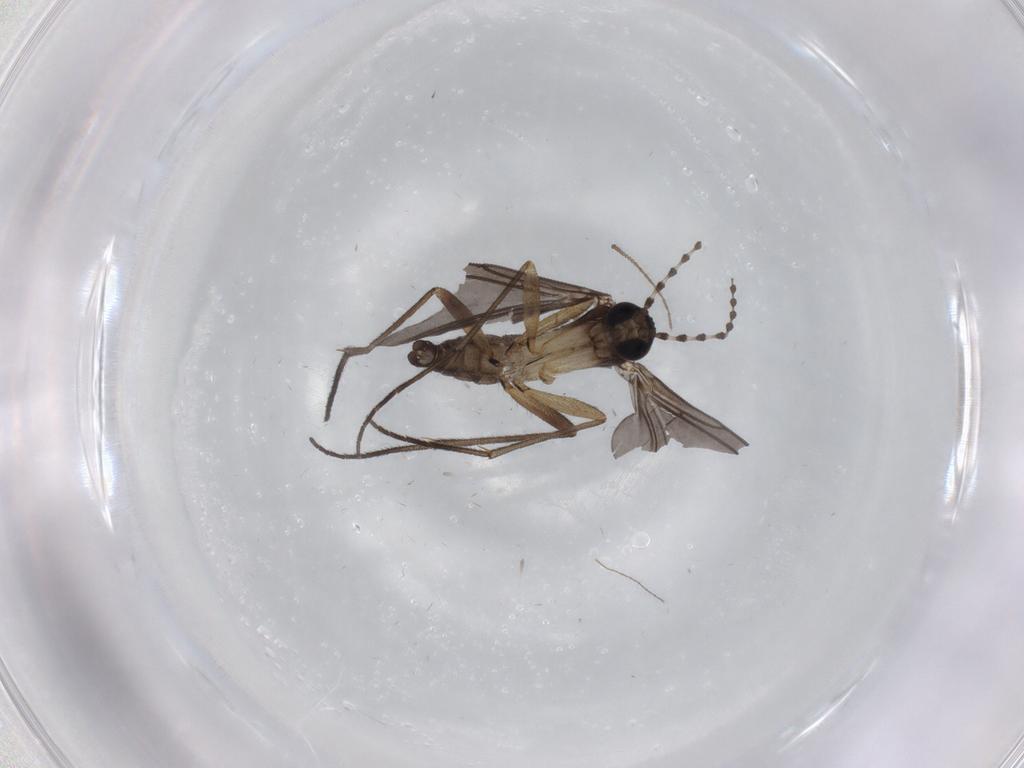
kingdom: Animalia
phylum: Arthropoda
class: Insecta
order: Diptera
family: Sciaridae
